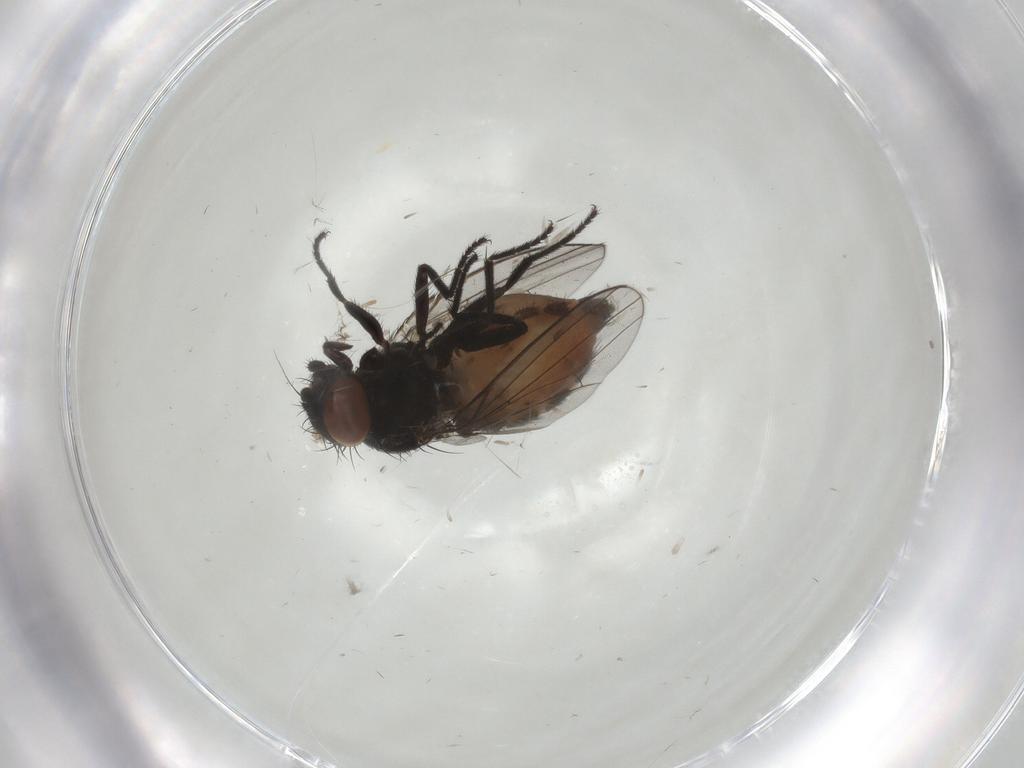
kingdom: Animalia
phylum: Arthropoda
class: Insecta
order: Diptera
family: Milichiidae
